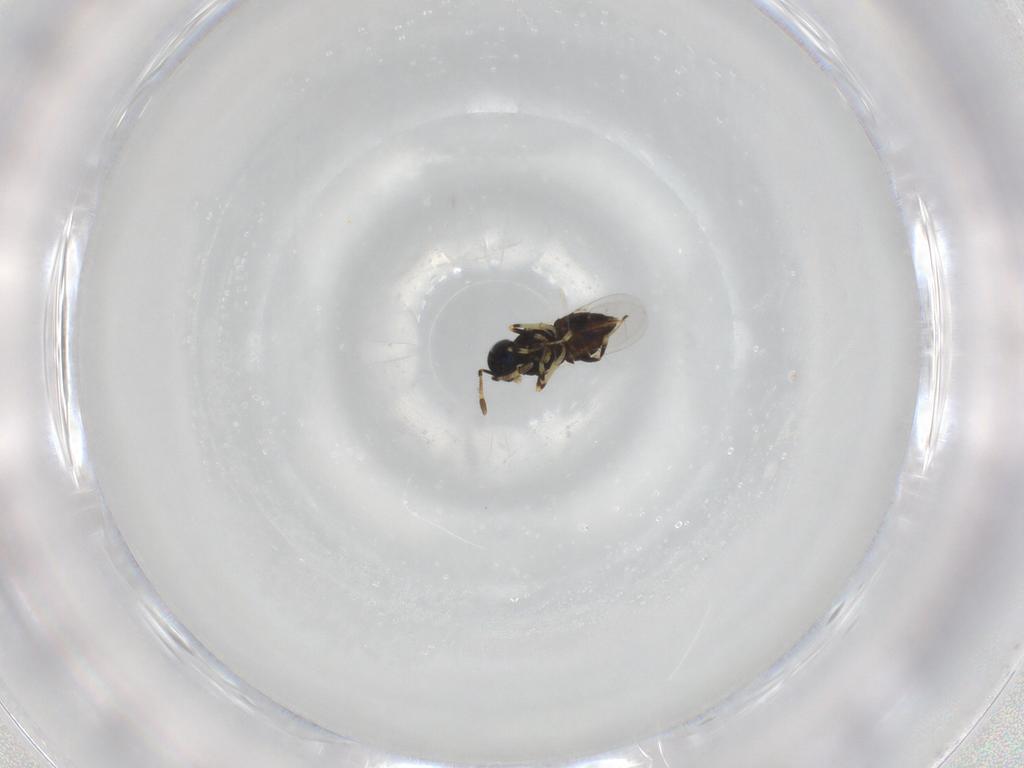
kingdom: Animalia
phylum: Arthropoda
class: Insecta
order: Hymenoptera
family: Encyrtidae
